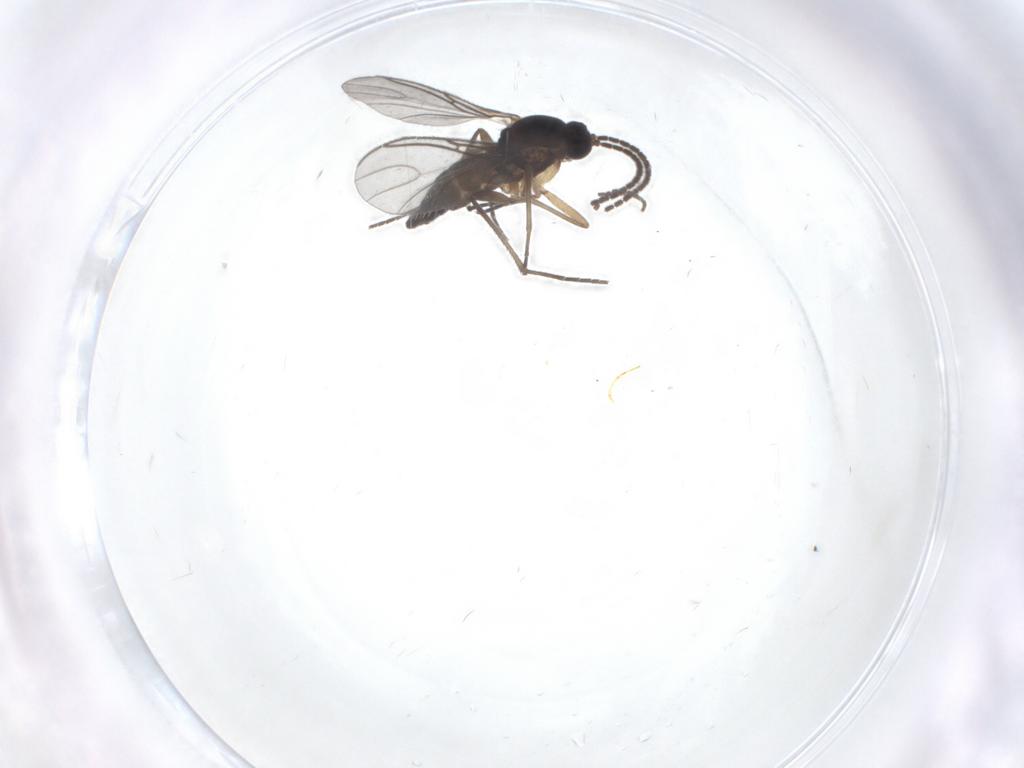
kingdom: Animalia
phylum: Arthropoda
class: Insecta
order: Diptera
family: Sciaridae
